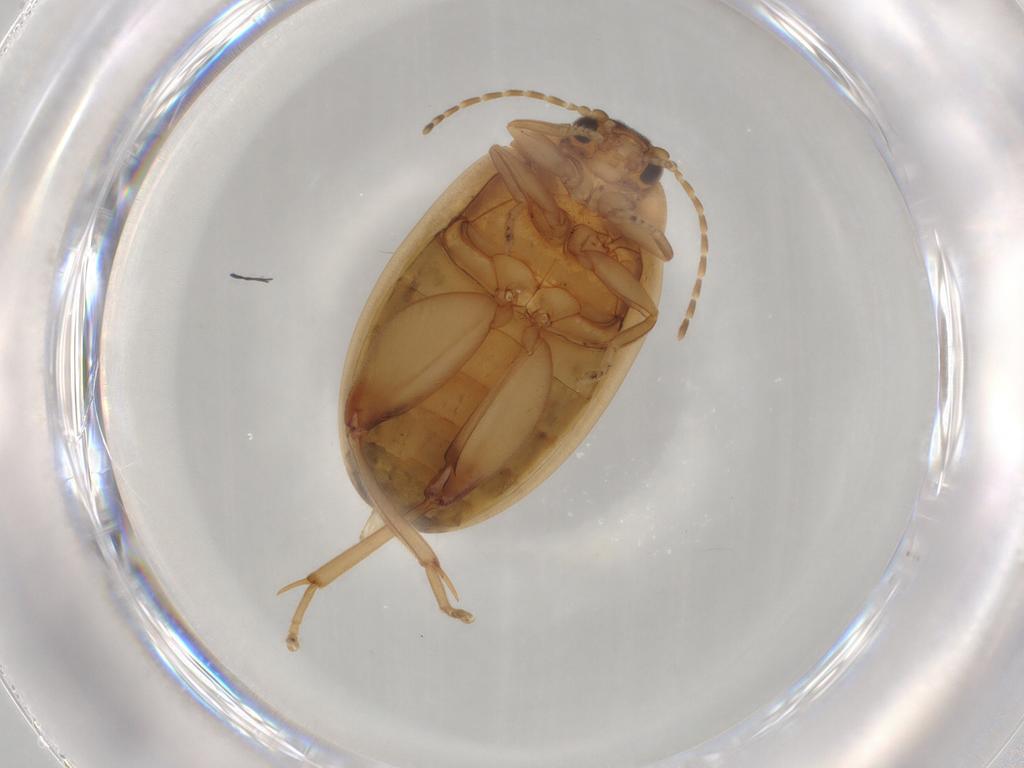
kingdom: Animalia
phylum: Arthropoda
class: Insecta
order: Coleoptera
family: Scirtidae
